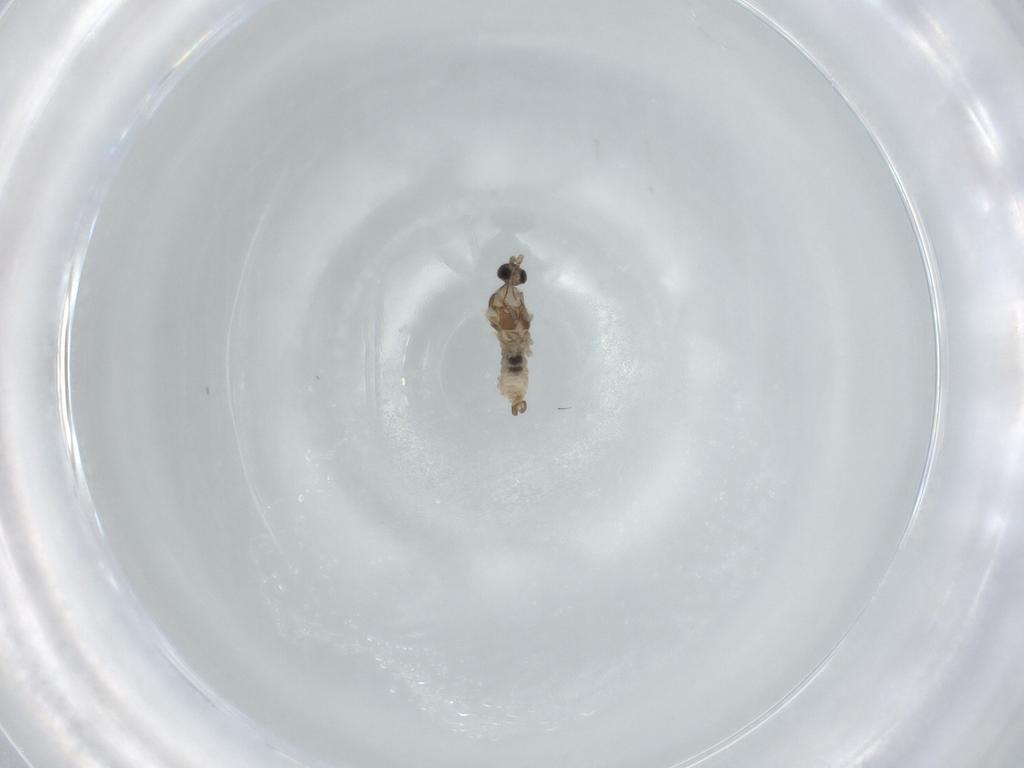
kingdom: Animalia
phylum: Arthropoda
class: Insecta
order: Diptera
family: Cecidomyiidae
